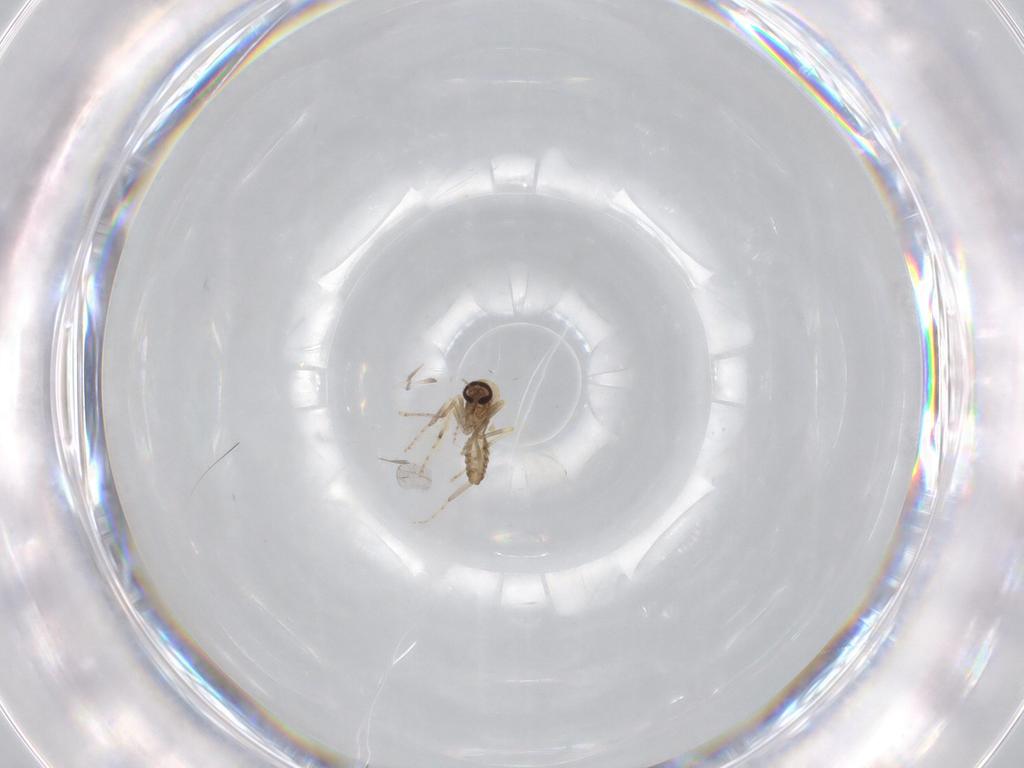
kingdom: Animalia
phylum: Arthropoda
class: Insecta
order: Diptera
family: Ceratopogonidae
